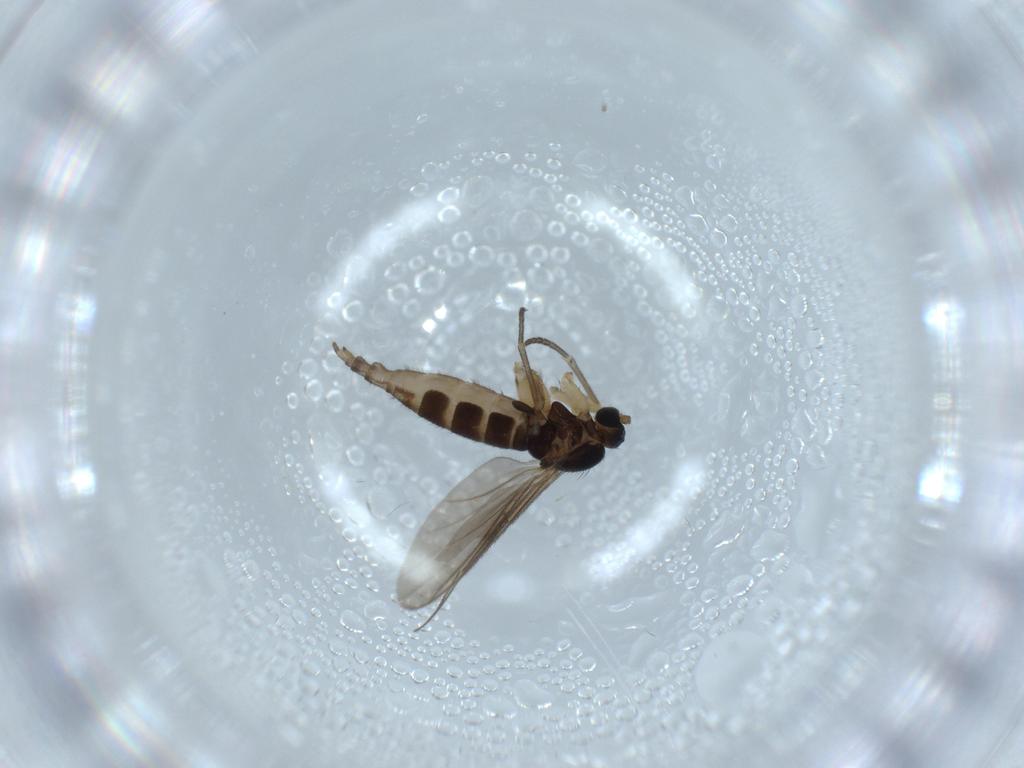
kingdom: Animalia
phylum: Arthropoda
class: Insecta
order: Diptera
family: Sciaridae
